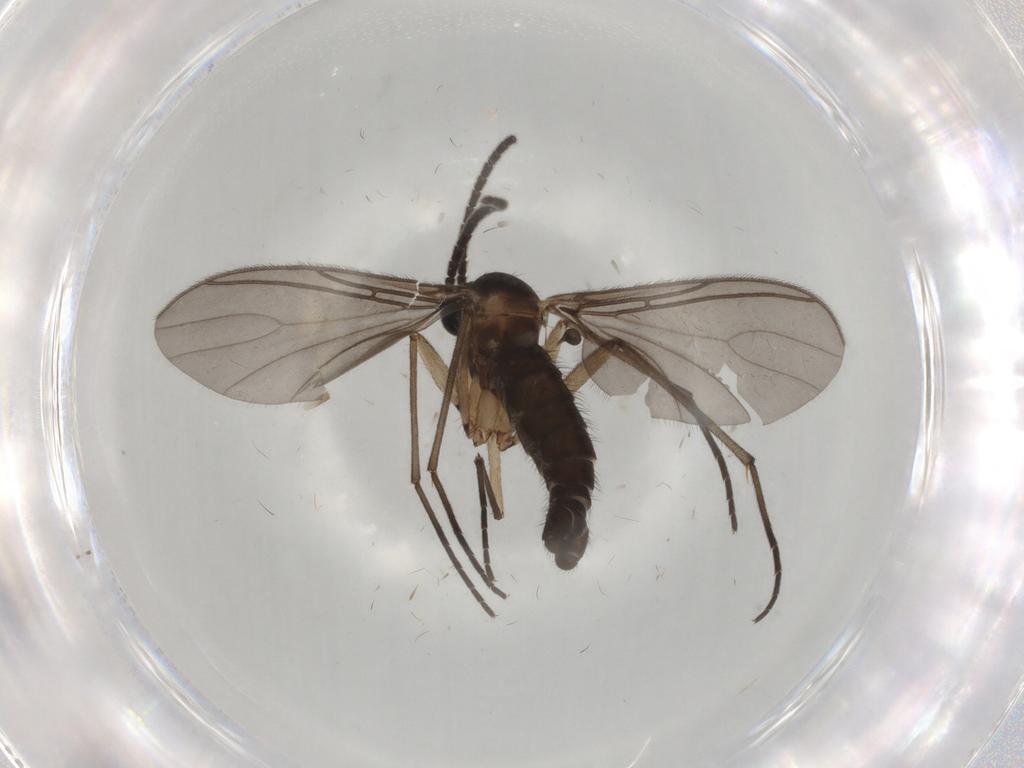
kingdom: Animalia
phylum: Arthropoda
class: Insecta
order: Diptera
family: Sciaridae
